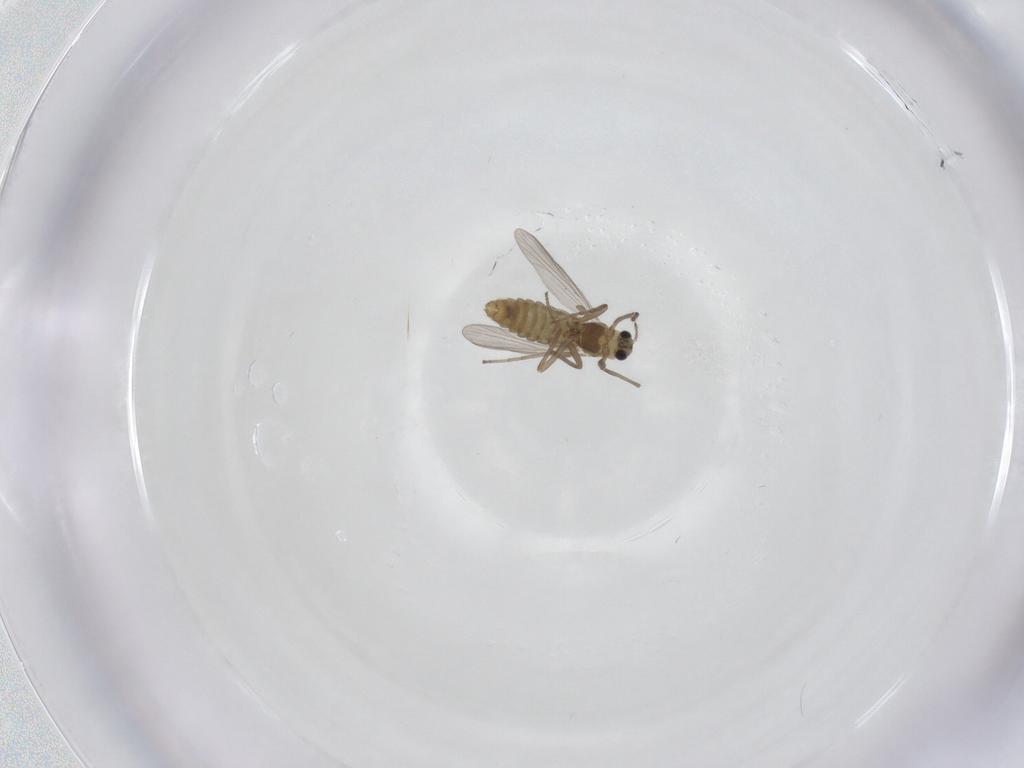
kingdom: Animalia
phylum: Arthropoda
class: Insecta
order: Diptera
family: Chironomidae
